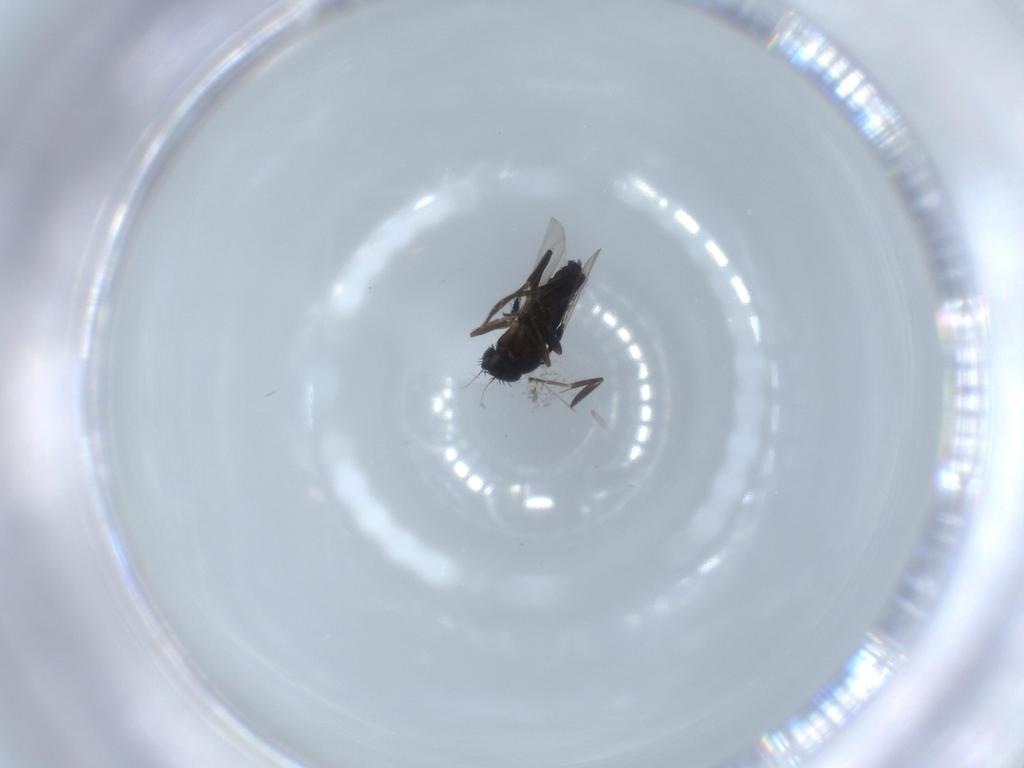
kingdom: Animalia
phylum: Arthropoda
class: Insecta
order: Diptera
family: Phoridae
